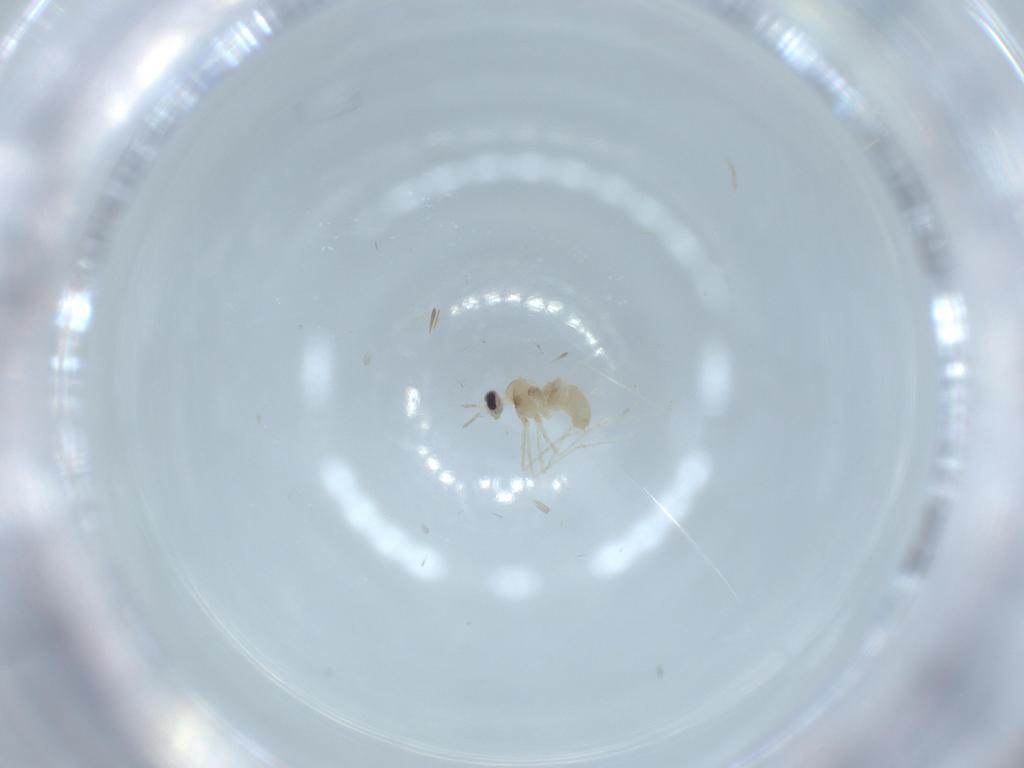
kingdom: Animalia
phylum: Arthropoda
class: Insecta
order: Diptera
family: Cecidomyiidae
